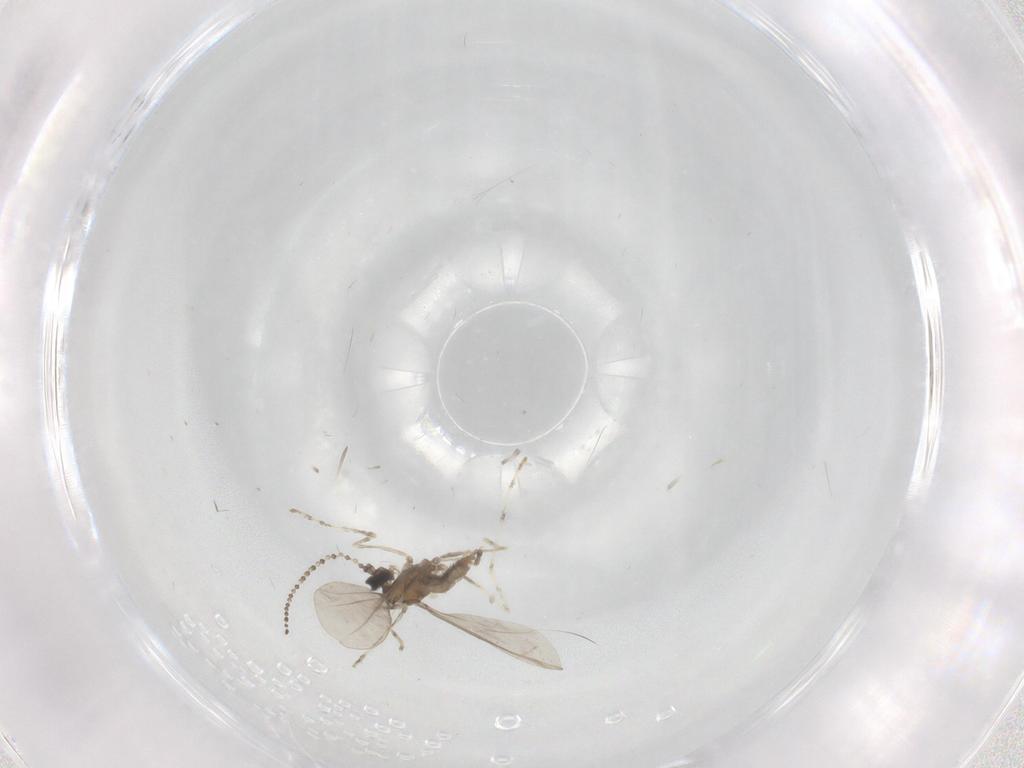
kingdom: Animalia
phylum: Arthropoda
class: Insecta
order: Diptera
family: Cecidomyiidae
